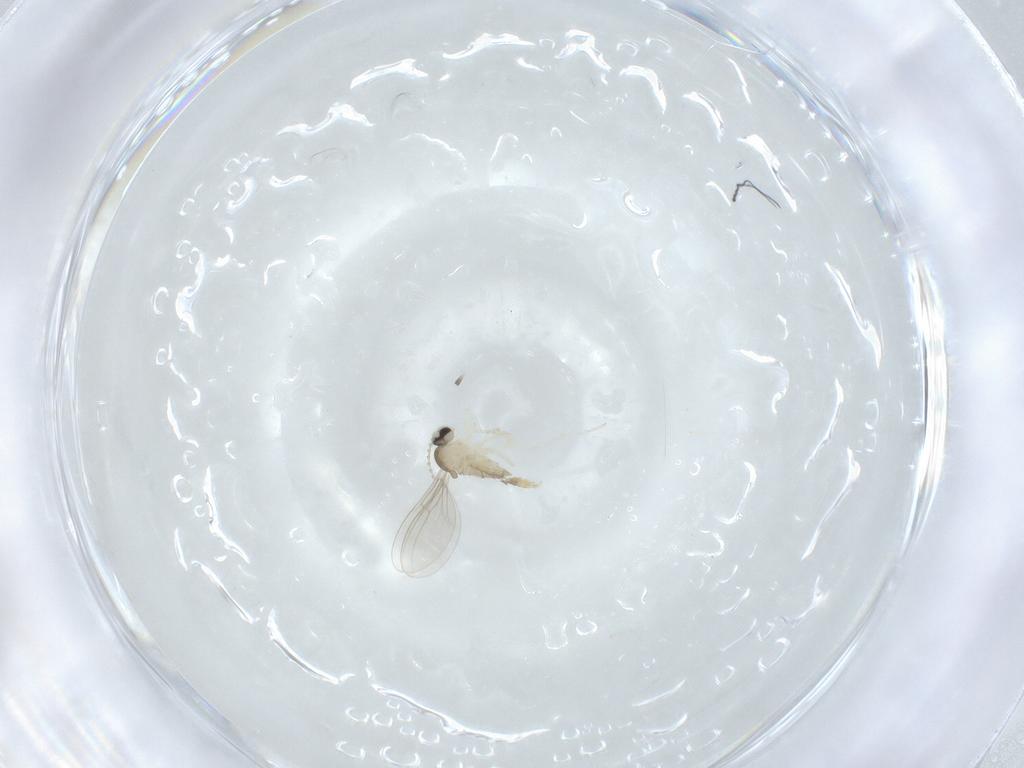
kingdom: Animalia
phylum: Arthropoda
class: Insecta
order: Diptera
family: Cecidomyiidae
